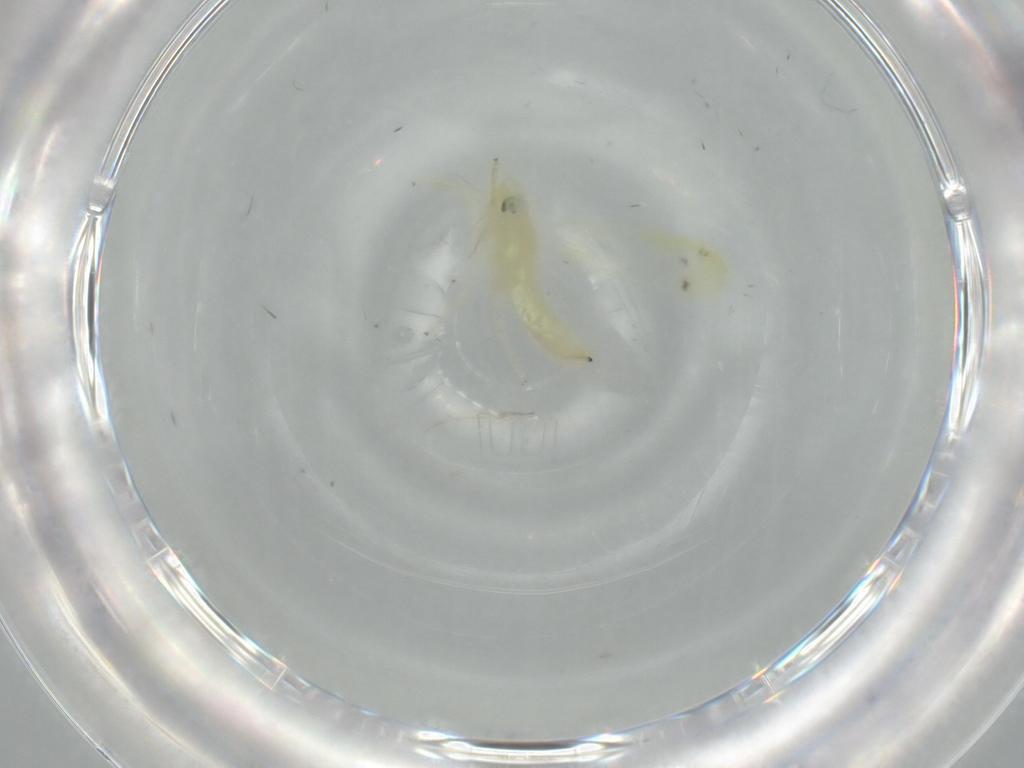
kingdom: Animalia
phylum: Arthropoda
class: Insecta
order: Hemiptera
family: Cicadellidae
